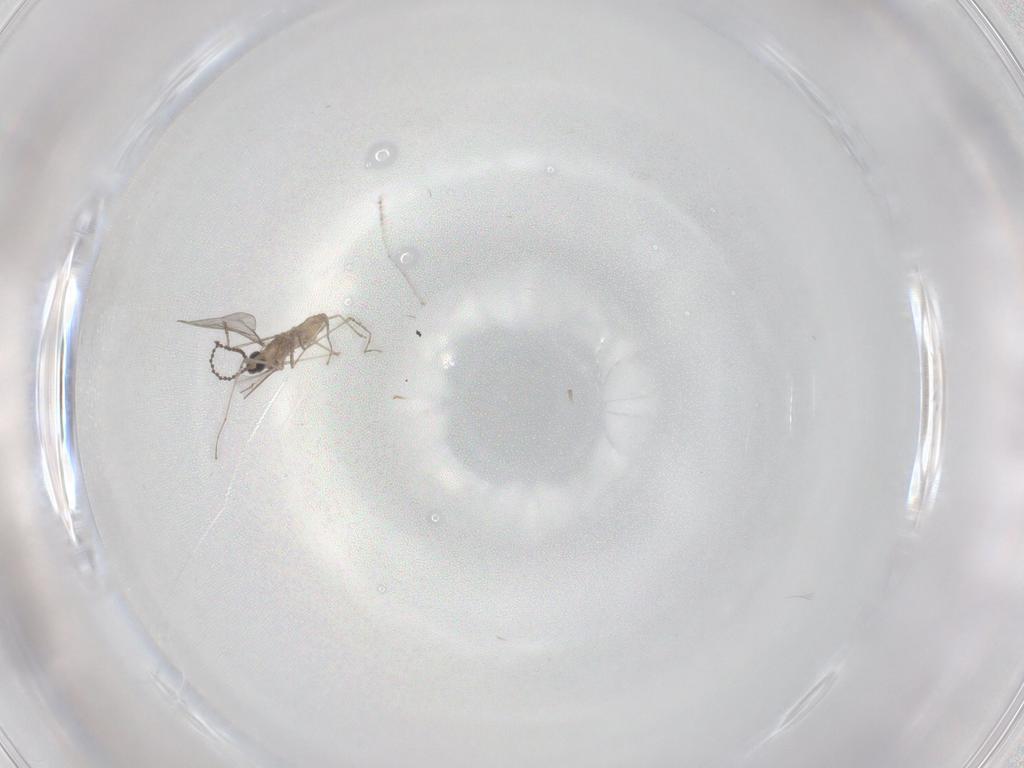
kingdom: Animalia
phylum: Arthropoda
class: Insecta
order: Diptera
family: Cecidomyiidae
